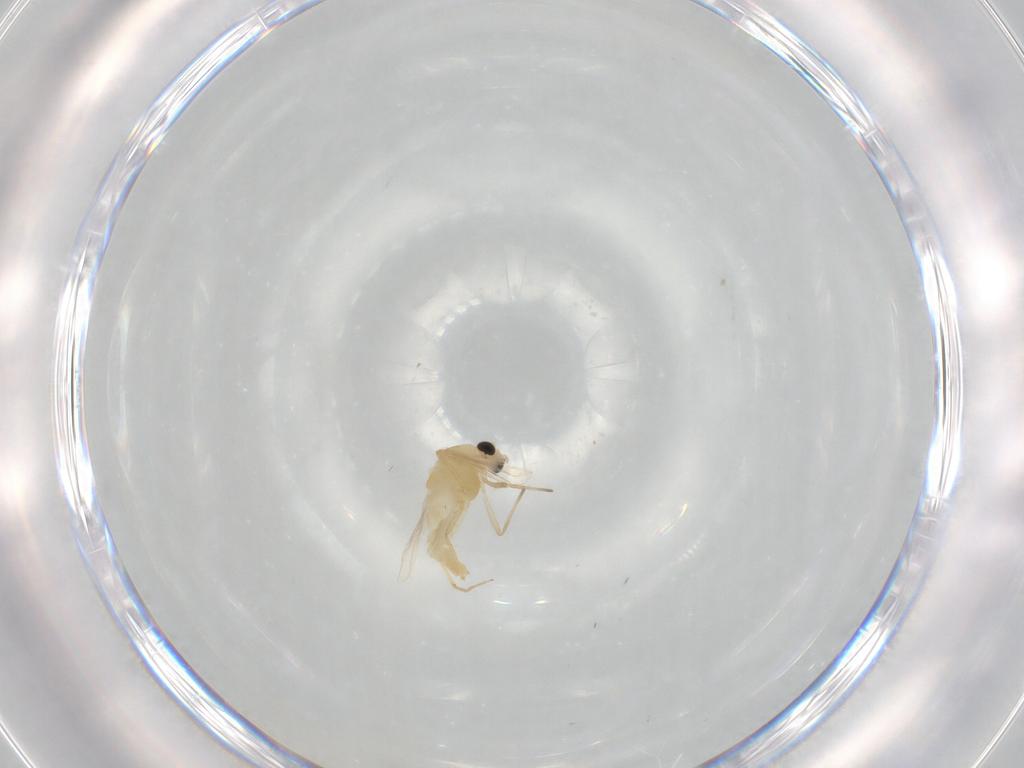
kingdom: Animalia
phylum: Arthropoda
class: Insecta
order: Diptera
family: Chironomidae
